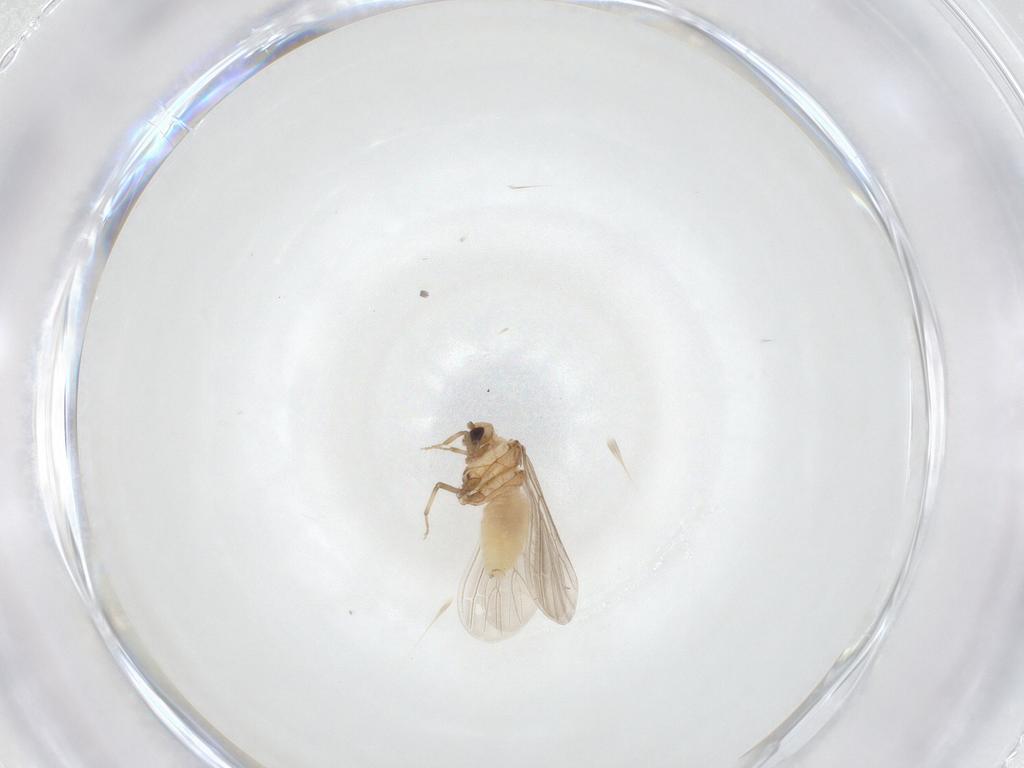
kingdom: Animalia
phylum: Arthropoda
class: Insecta
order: Neuroptera
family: Coniopterygidae
